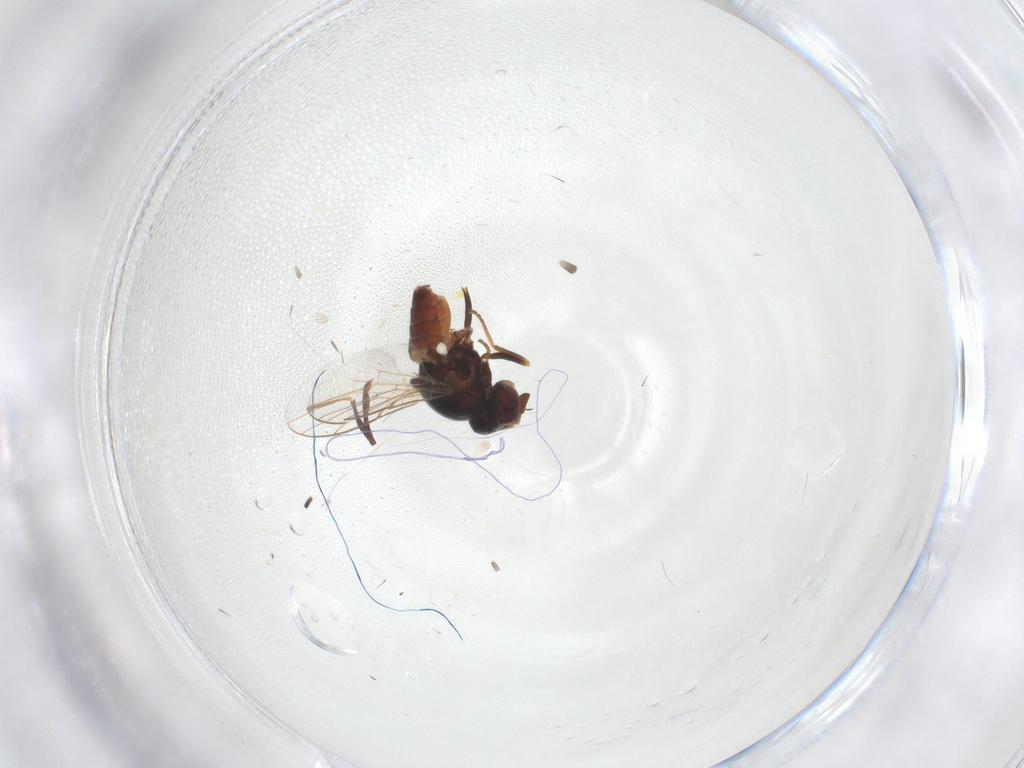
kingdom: Animalia
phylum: Arthropoda
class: Insecta
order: Diptera
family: Chloropidae
